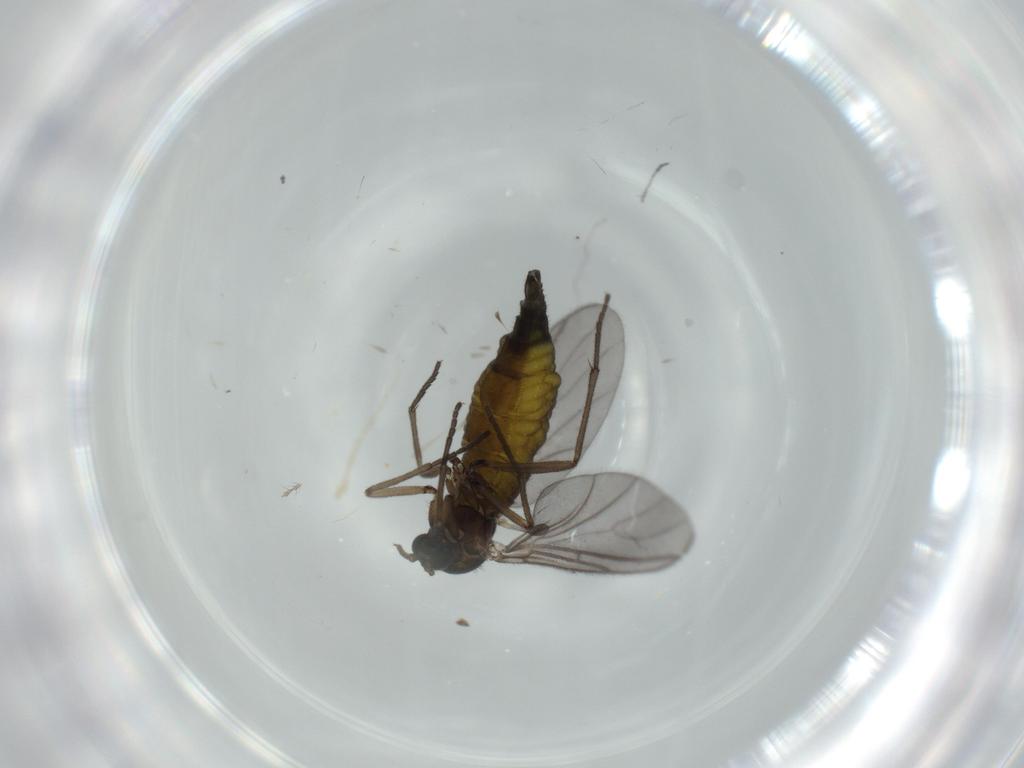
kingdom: Animalia
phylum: Arthropoda
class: Insecta
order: Diptera
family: Sciaridae
